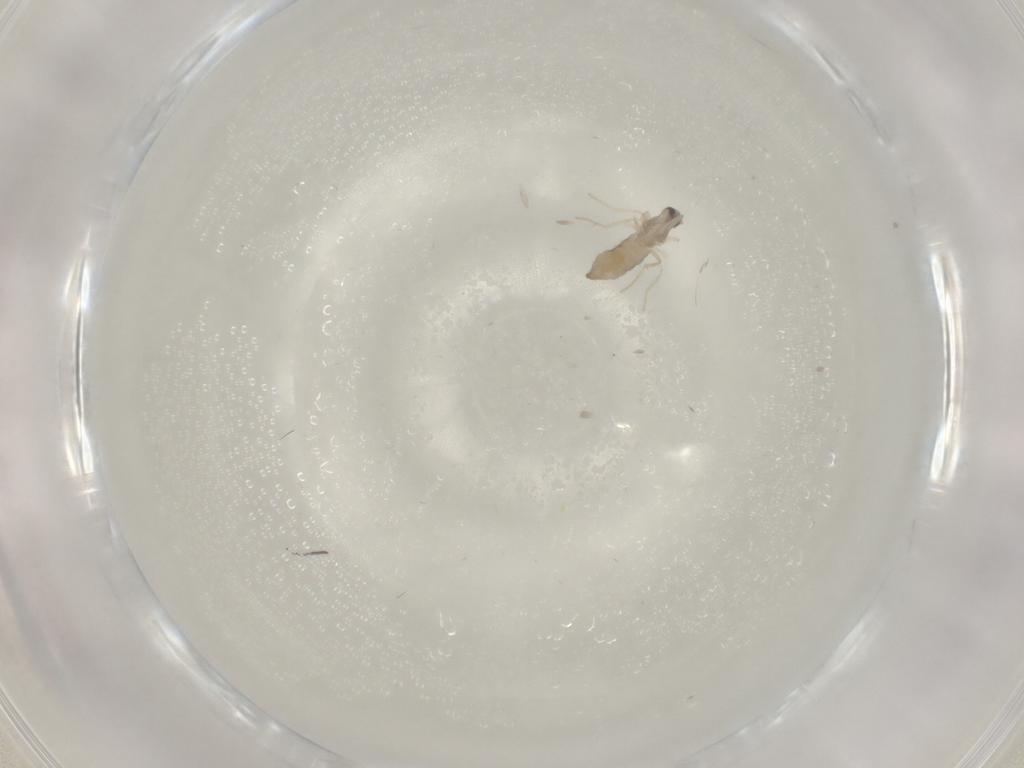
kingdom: Animalia
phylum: Arthropoda
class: Insecta
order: Diptera
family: Hybotidae
